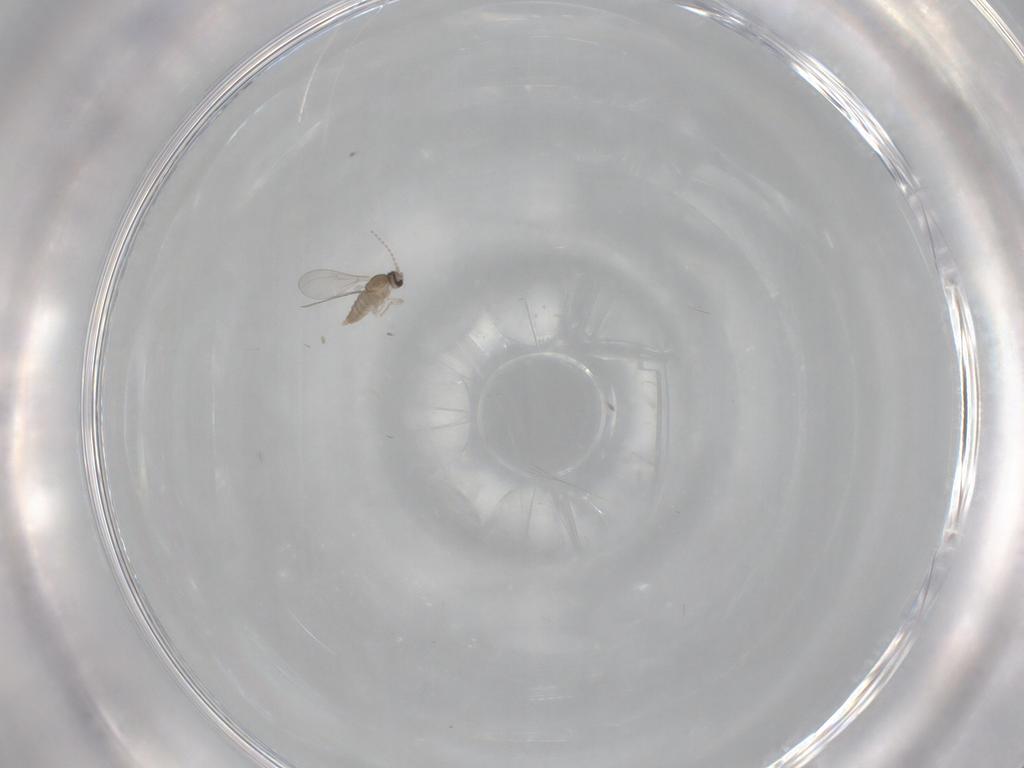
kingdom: Animalia
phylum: Arthropoda
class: Insecta
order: Diptera
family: Cecidomyiidae
